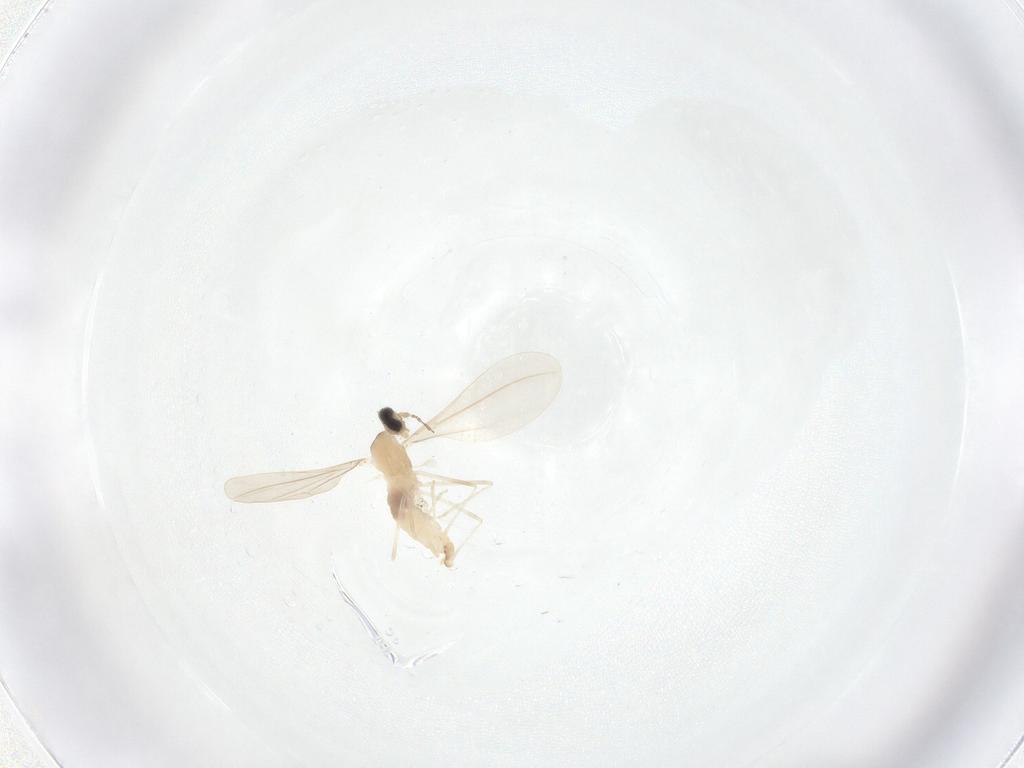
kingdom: Animalia
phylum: Arthropoda
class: Insecta
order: Diptera
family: Cecidomyiidae
